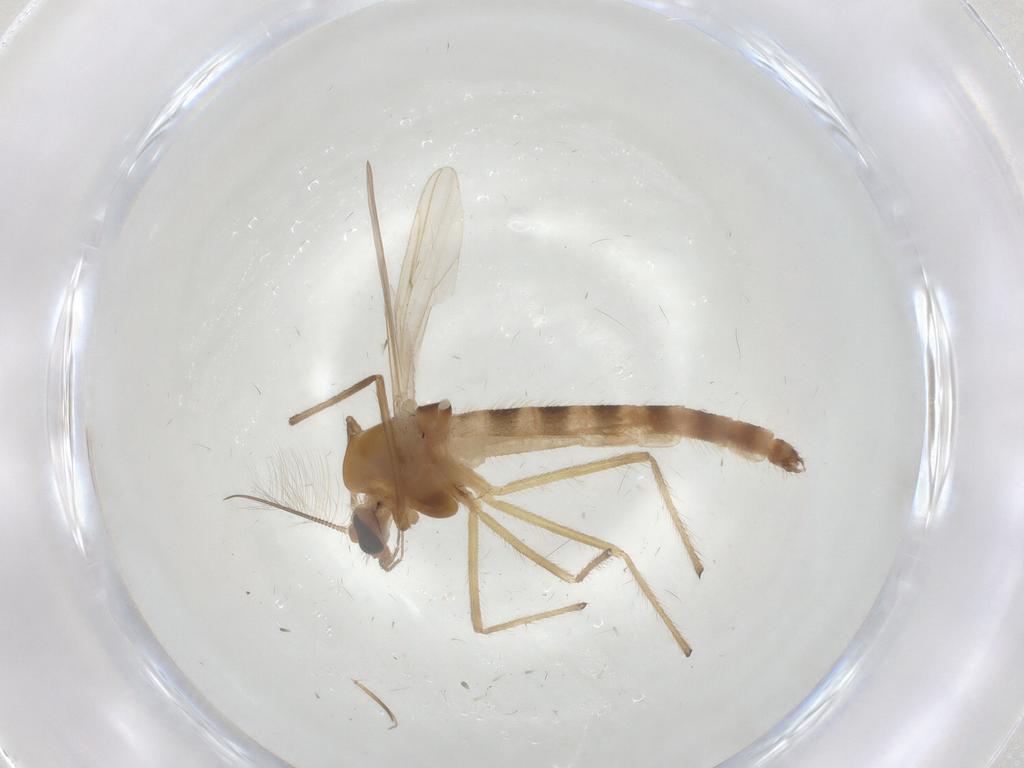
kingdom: Animalia
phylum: Arthropoda
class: Insecta
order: Diptera
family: Chironomidae
